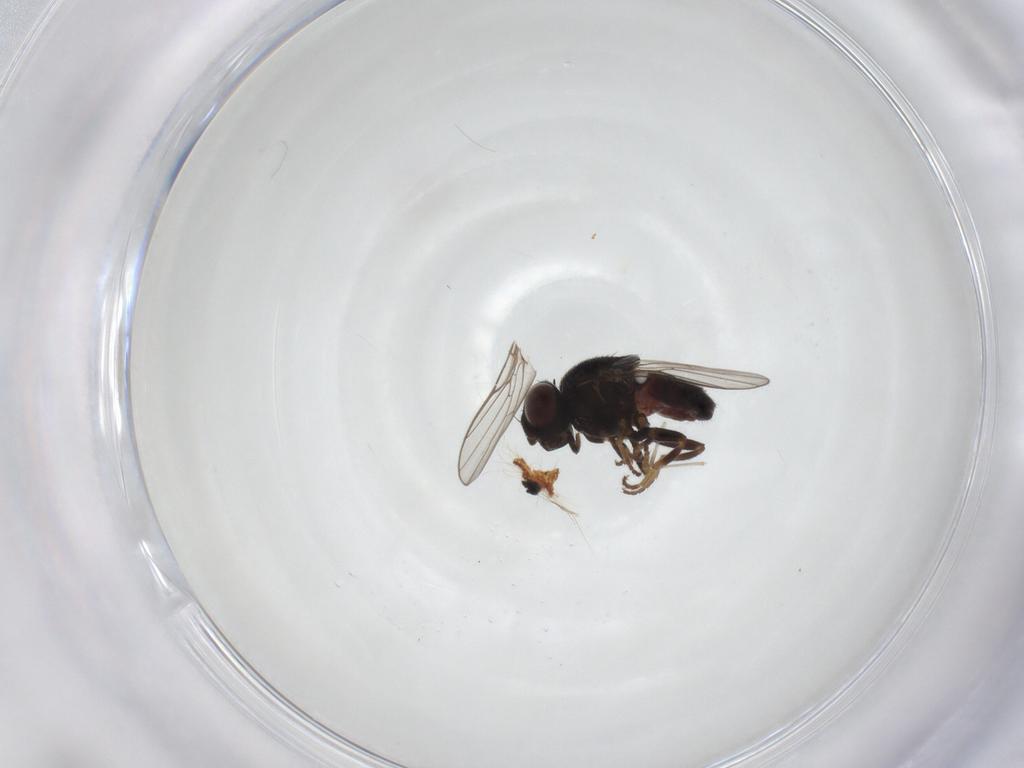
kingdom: Animalia
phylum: Arthropoda
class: Insecta
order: Diptera
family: Chloropidae
